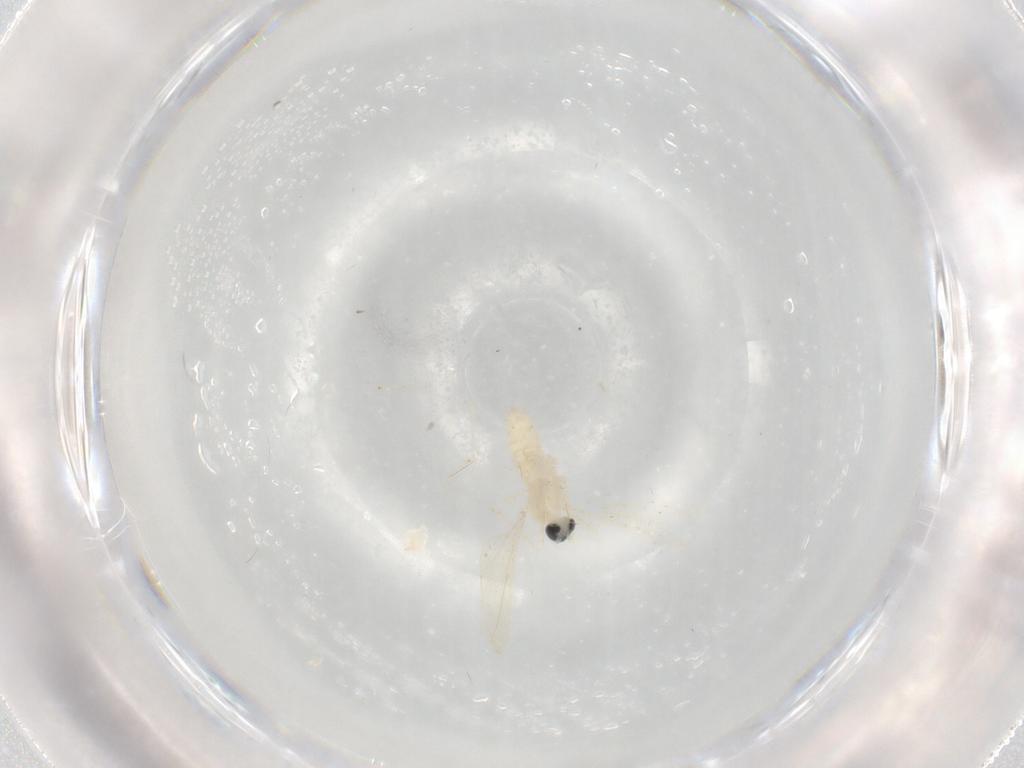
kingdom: Animalia
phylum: Arthropoda
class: Insecta
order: Diptera
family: Cecidomyiidae
